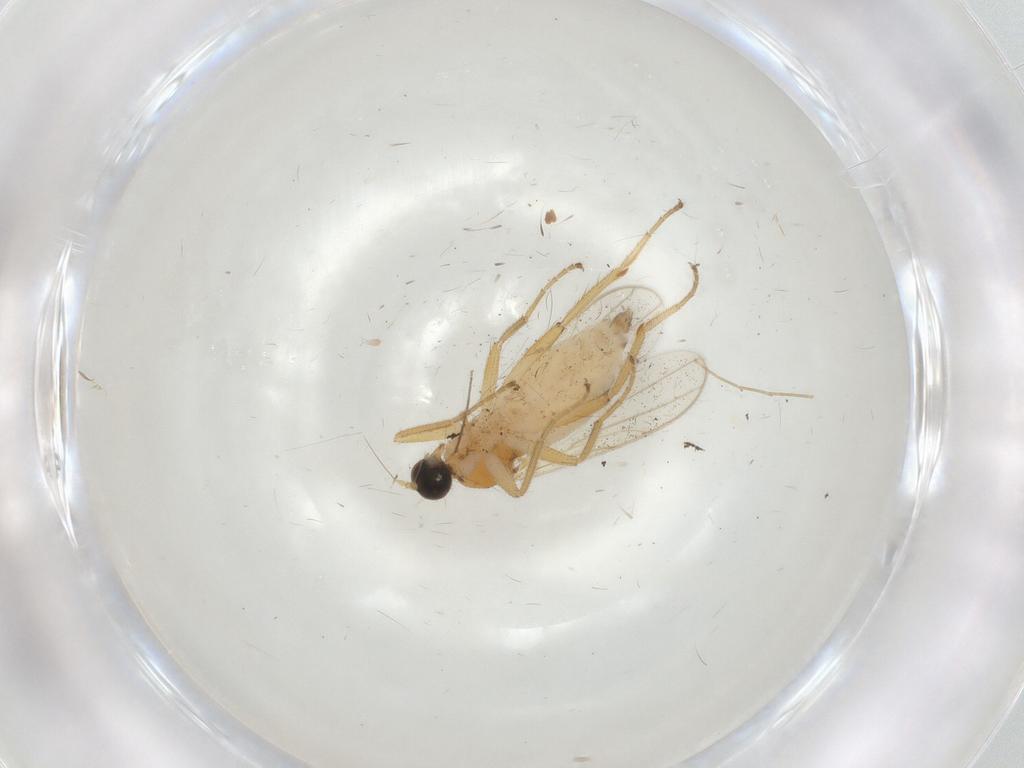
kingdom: Animalia
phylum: Arthropoda
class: Insecta
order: Diptera
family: Hybotidae
